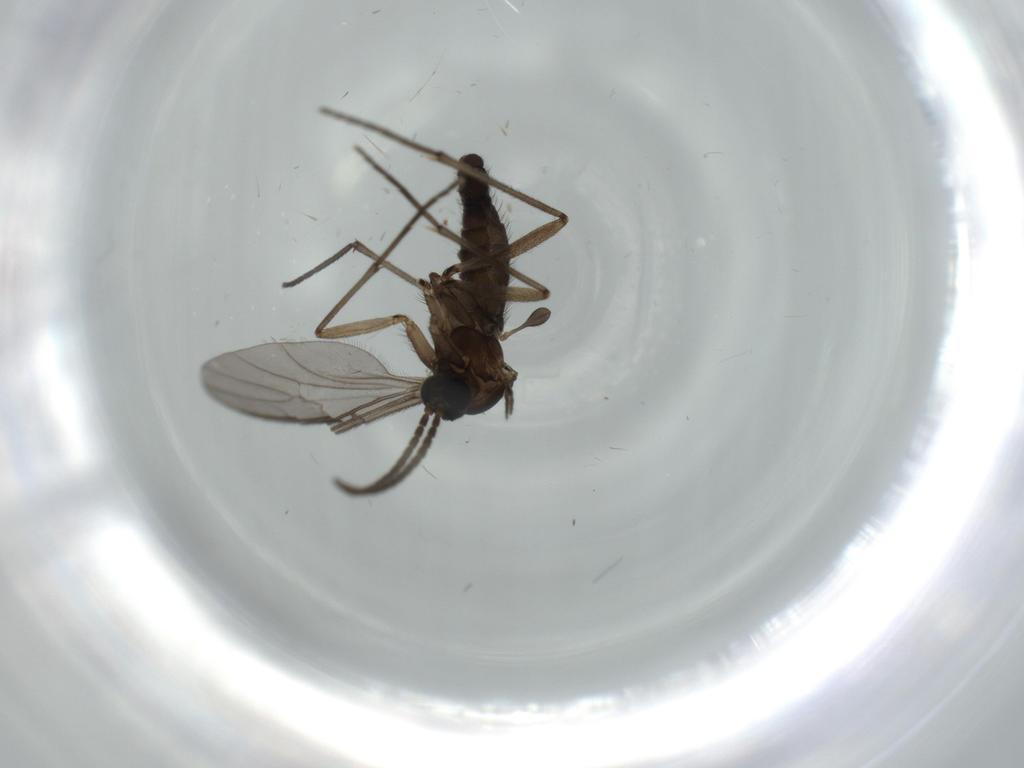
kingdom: Animalia
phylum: Arthropoda
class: Insecta
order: Diptera
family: Sciaridae
